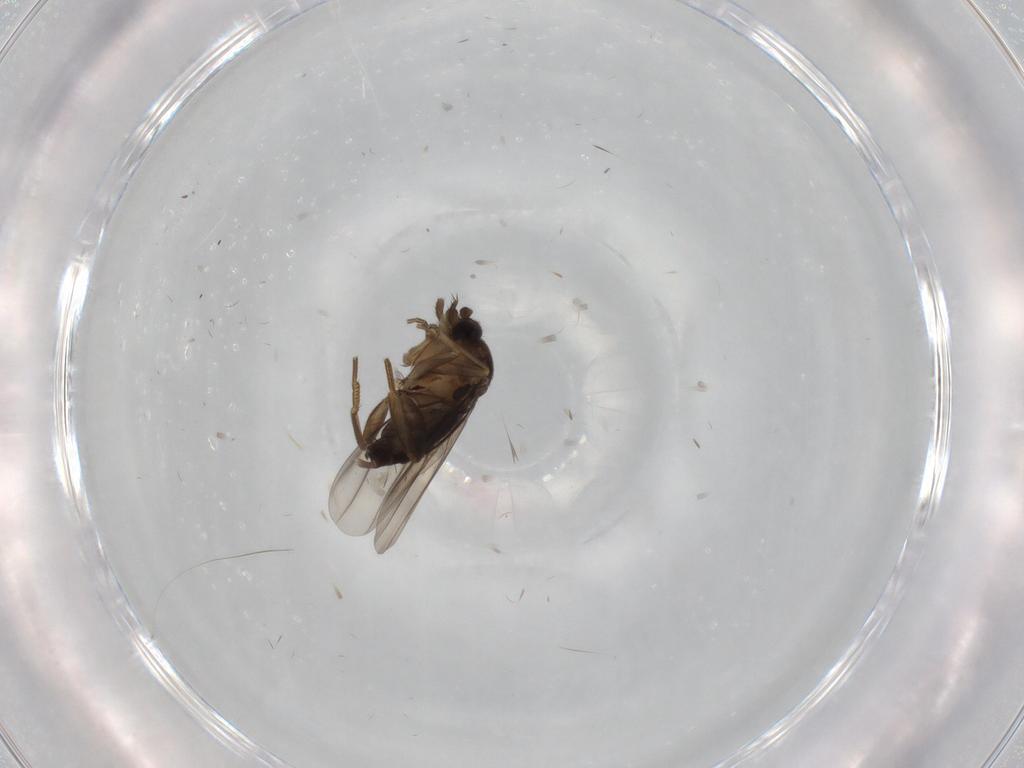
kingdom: Animalia
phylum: Arthropoda
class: Insecta
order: Diptera
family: Phoridae
